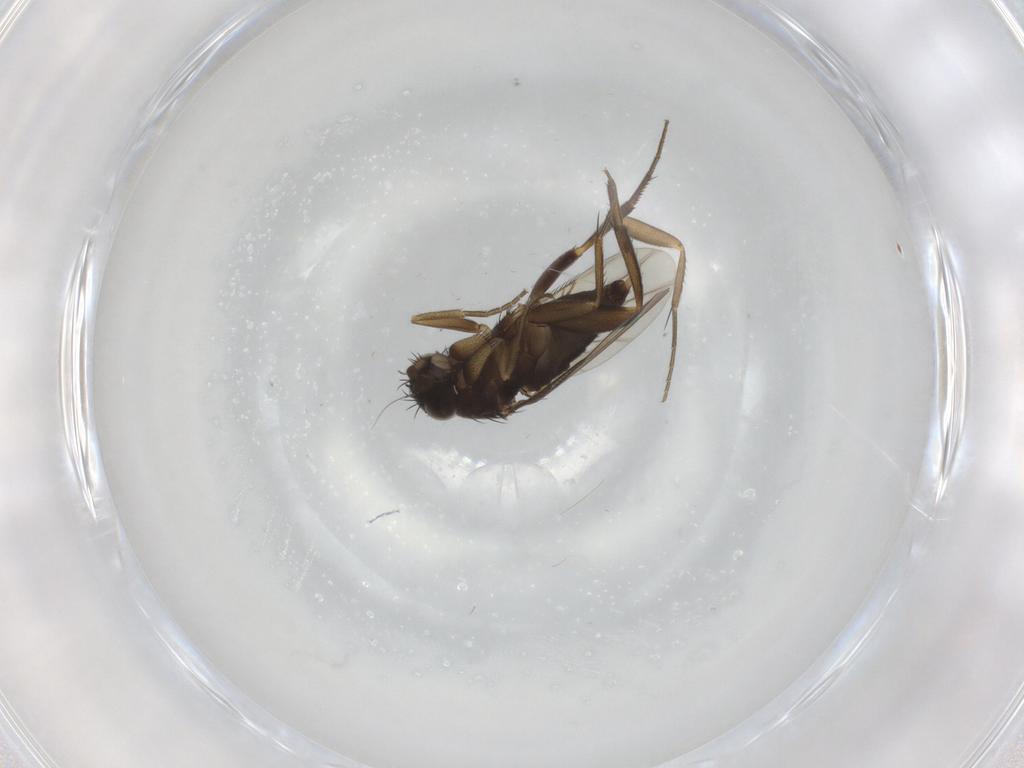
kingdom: Animalia
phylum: Arthropoda
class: Insecta
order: Diptera
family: Phoridae
